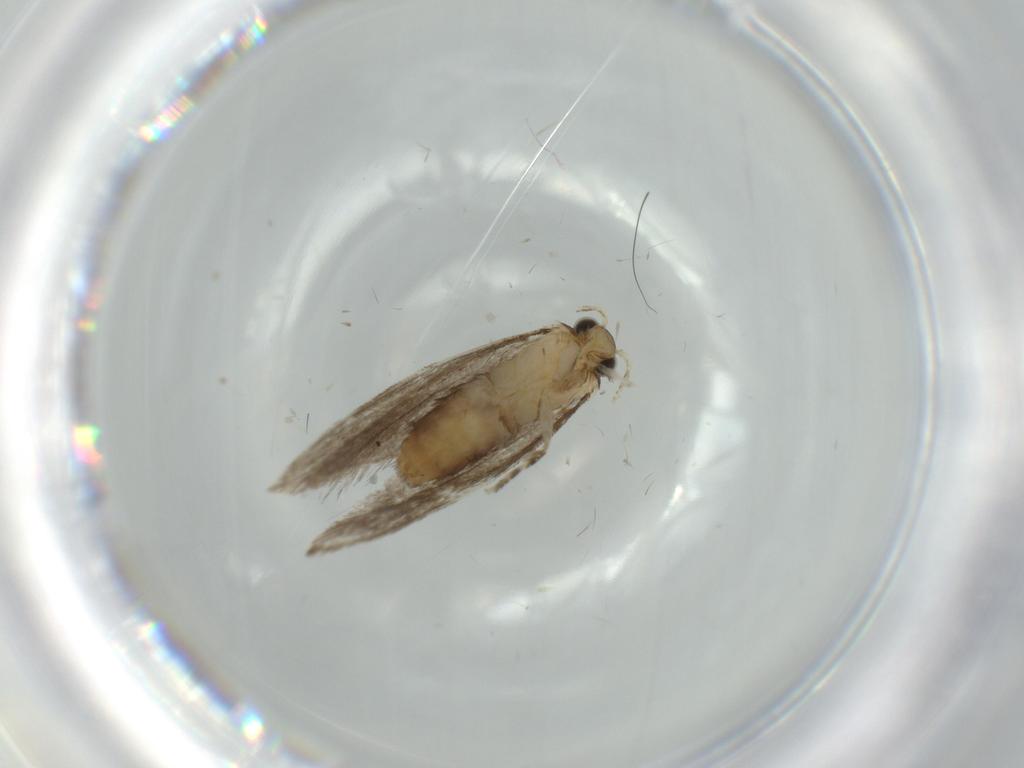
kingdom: Animalia
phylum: Arthropoda
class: Insecta
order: Lepidoptera
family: Tineidae
